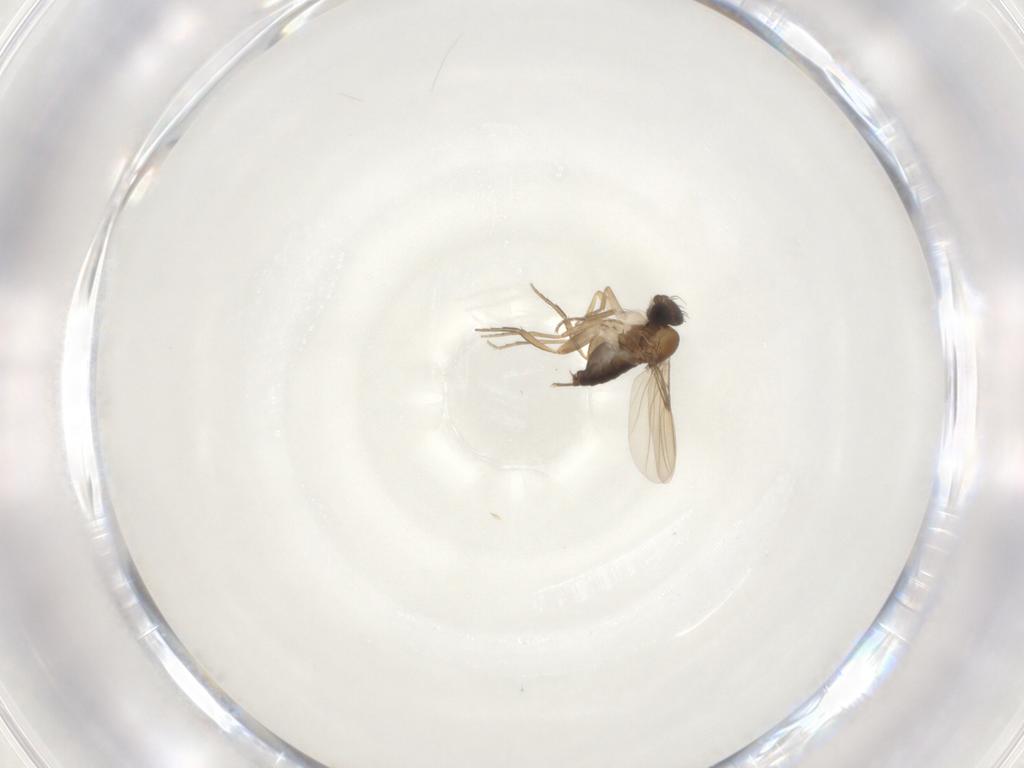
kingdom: Animalia
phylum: Arthropoda
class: Insecta
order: Diptera
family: Phoridae
